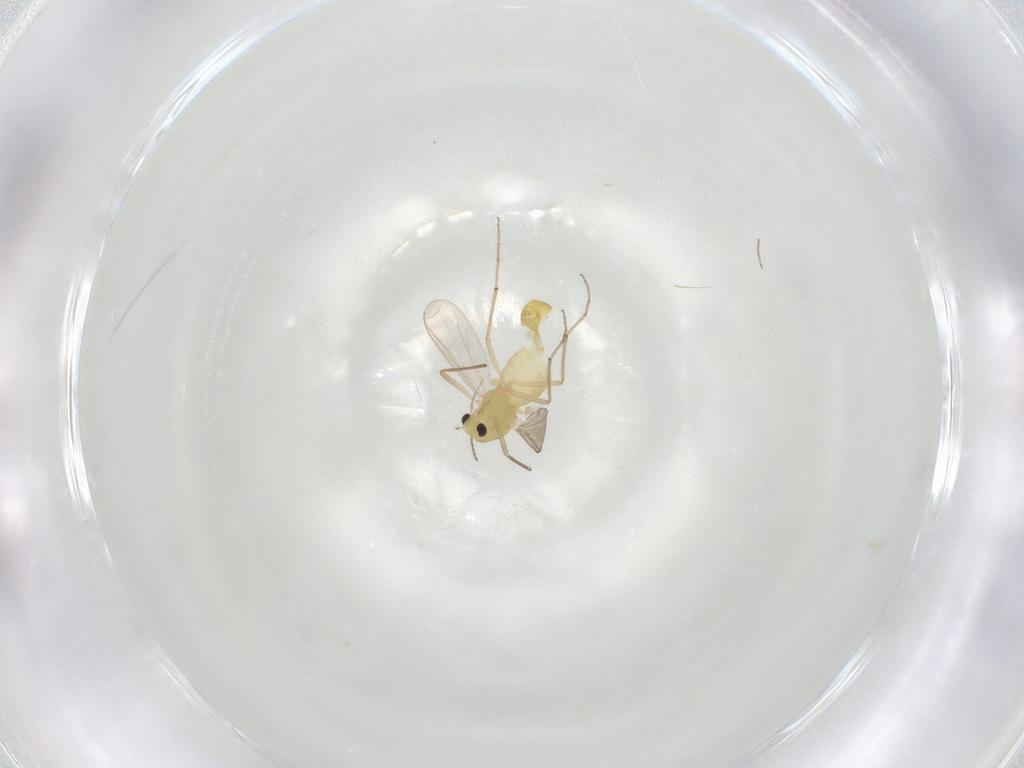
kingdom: Animalia
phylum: Arthropoda
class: Insecta
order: Diptera
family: Chironomidae
